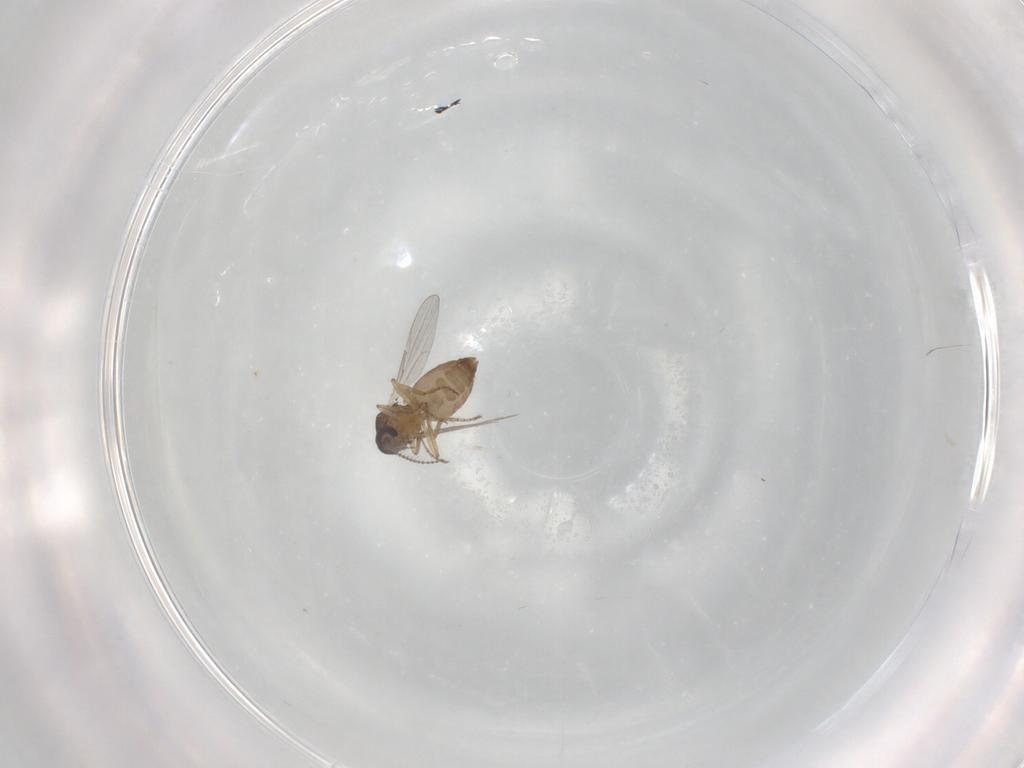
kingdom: Animalia
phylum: Arthropoda
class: Insecta
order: Diptera
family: Ceratopogonidae
